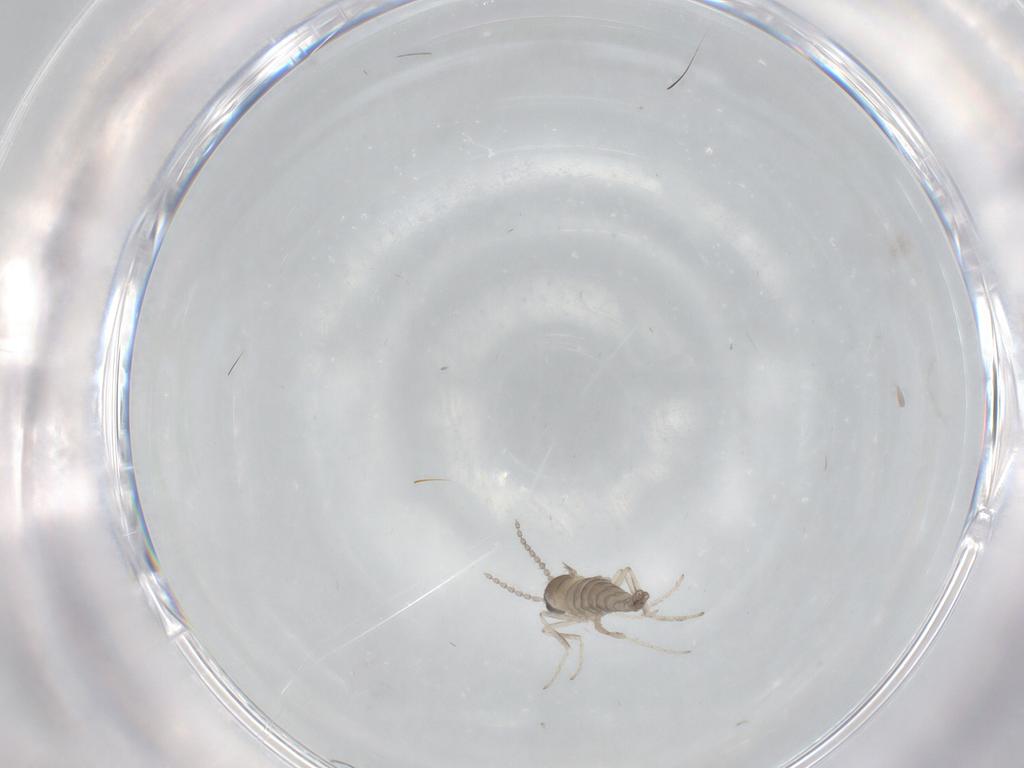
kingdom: Animalia
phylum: Arthropoda
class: Insecta
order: Diptera
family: Cecidomyiidae
